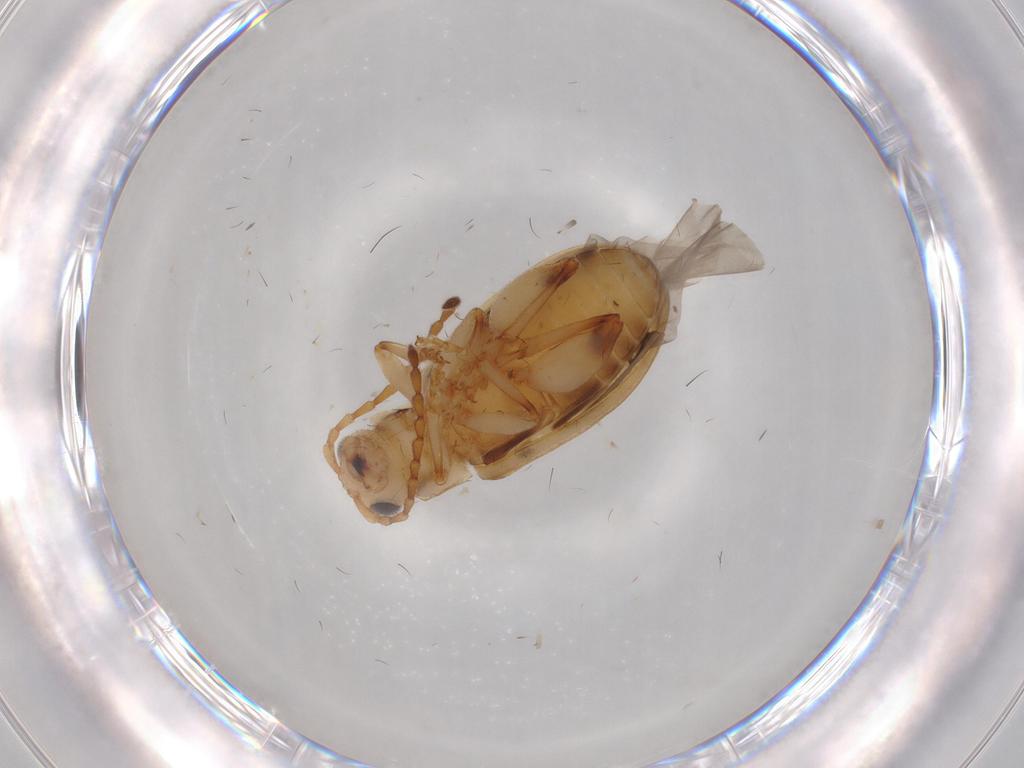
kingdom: Animalia
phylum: Arthropoda
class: Insecta
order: Coleoptera
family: Chrysomelidae
